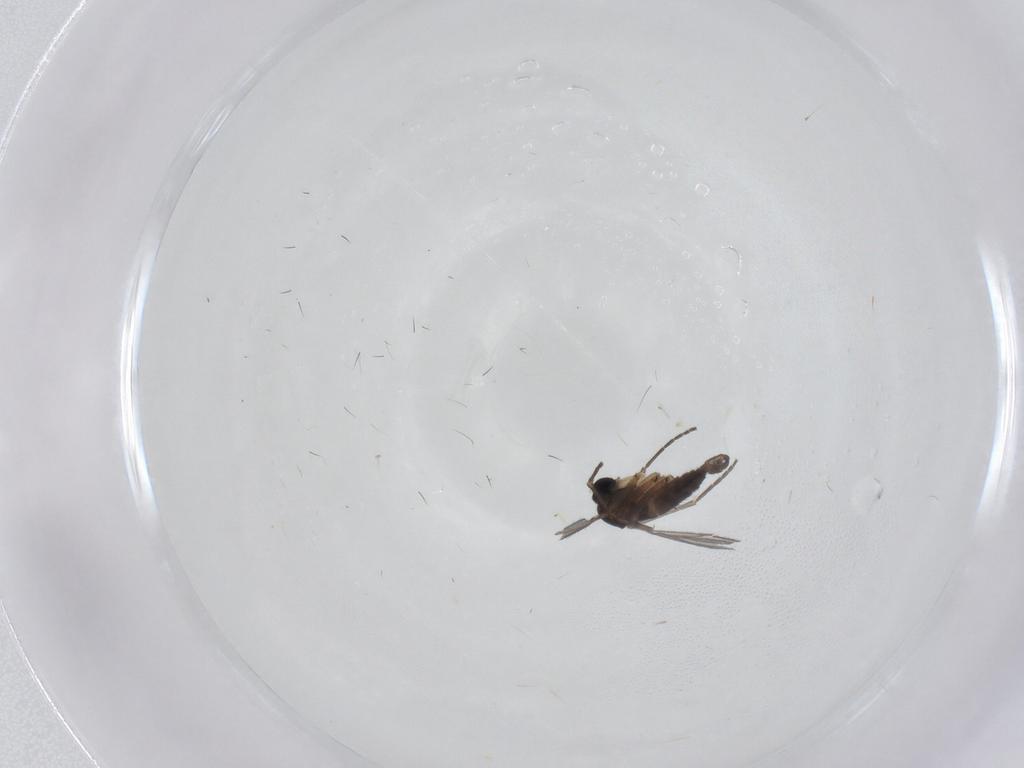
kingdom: Animalia
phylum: Arthropoda
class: Insecta
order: Diptera
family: Sciaridae
